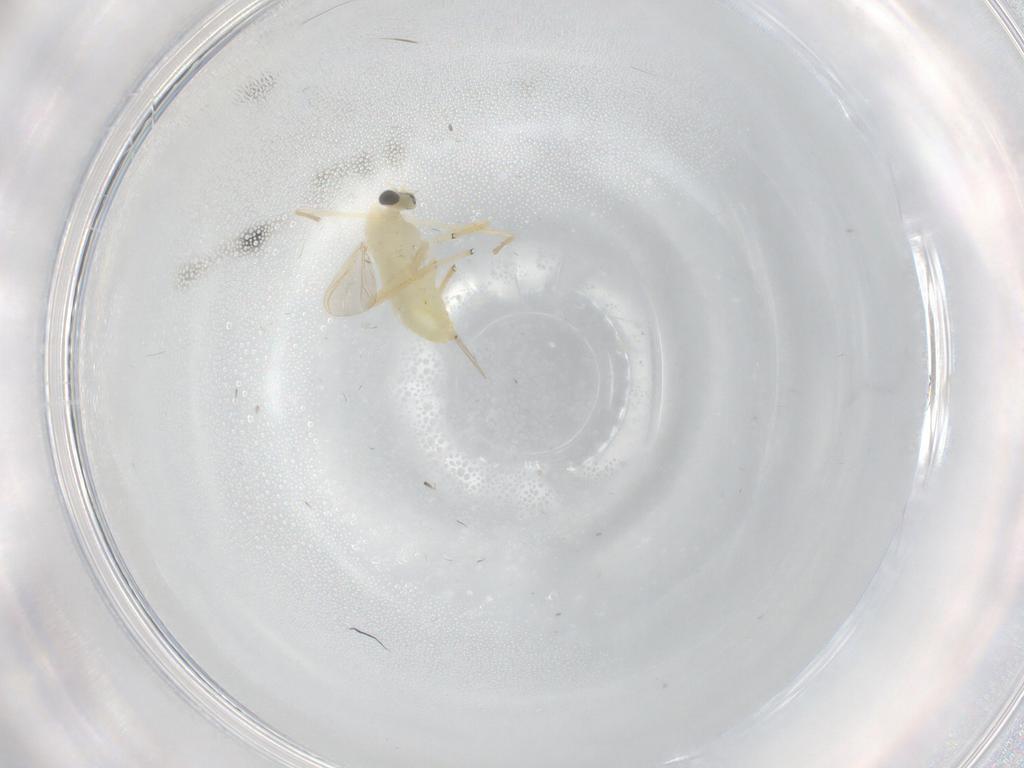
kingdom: Animalia
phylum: Arthropoda
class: Insecta
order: Diptera
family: Chironomidae
